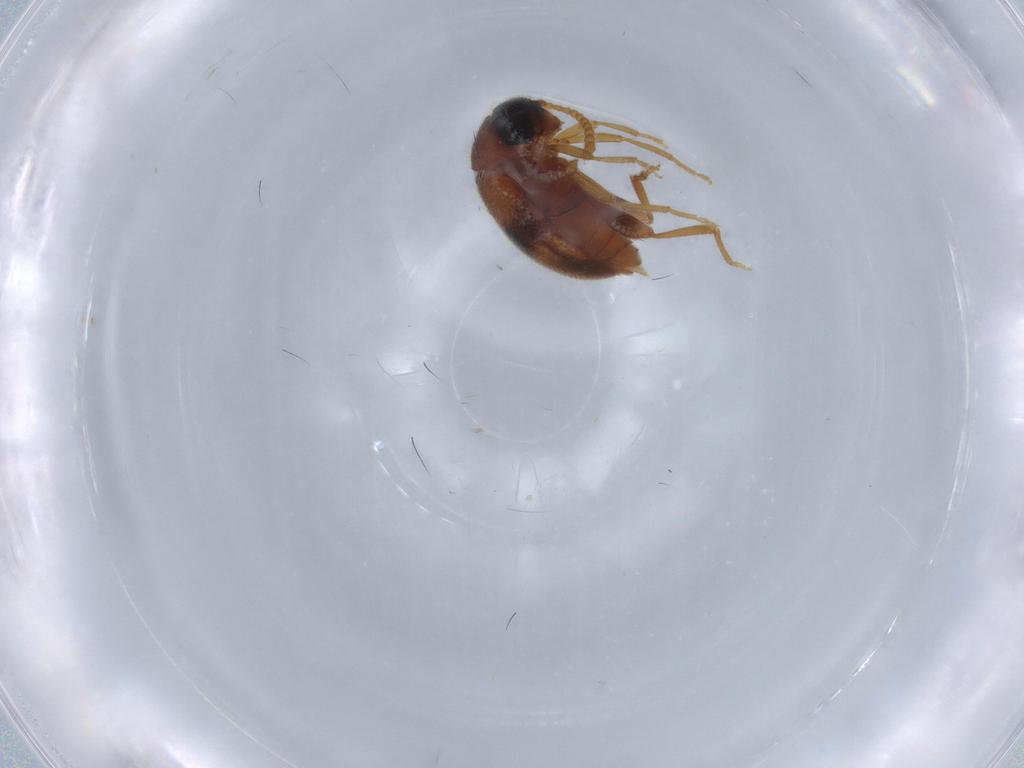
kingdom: Animalia
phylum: Arthropoda
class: Insecta
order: Coleoptera
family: Aderidae
